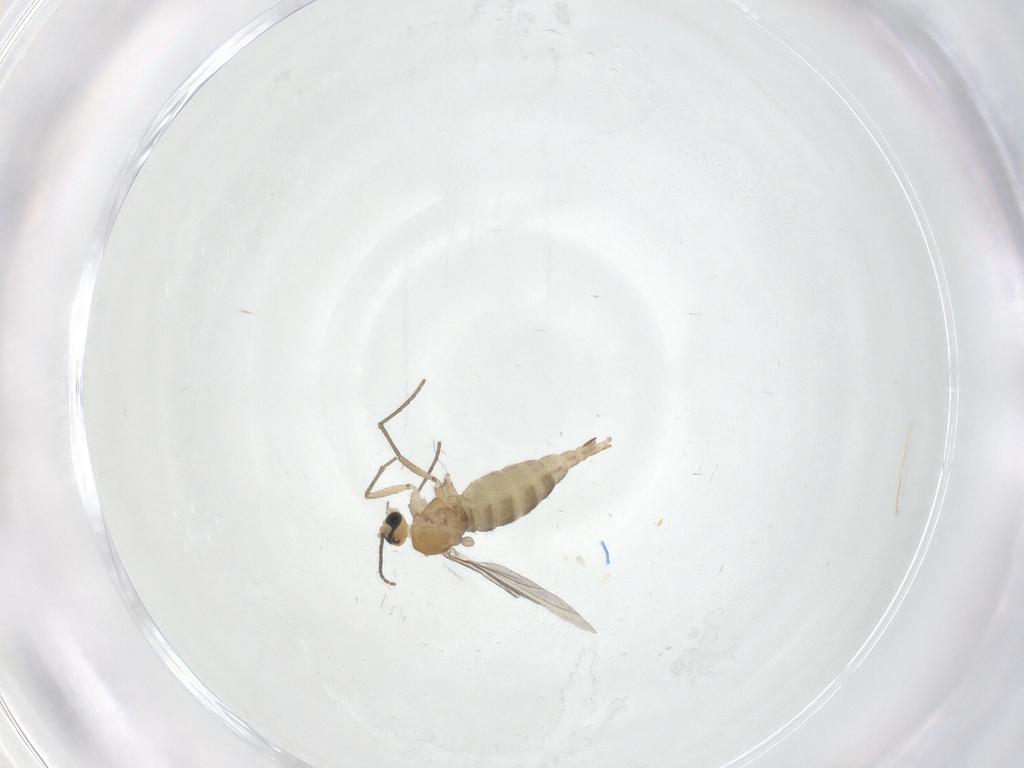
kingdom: Animalia
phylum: Arthropoda
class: Insecta
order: Diptera
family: Sciaridae
